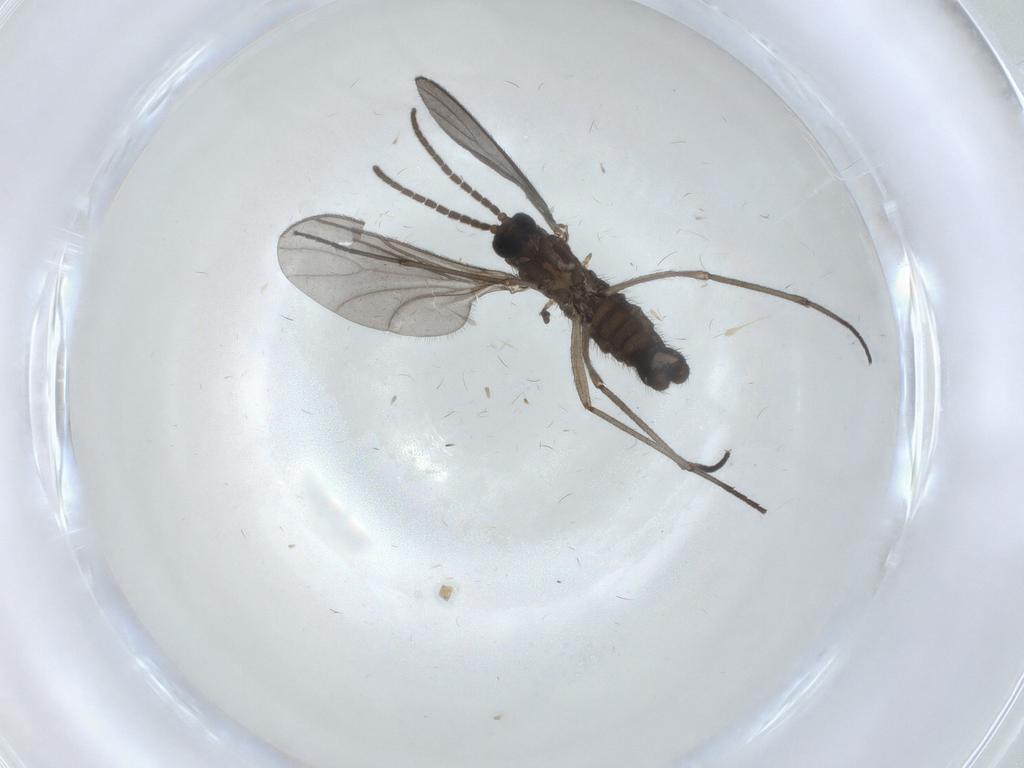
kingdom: Animalia
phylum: Arthropoda
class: Insecta
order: Diptera
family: Sciaridae
